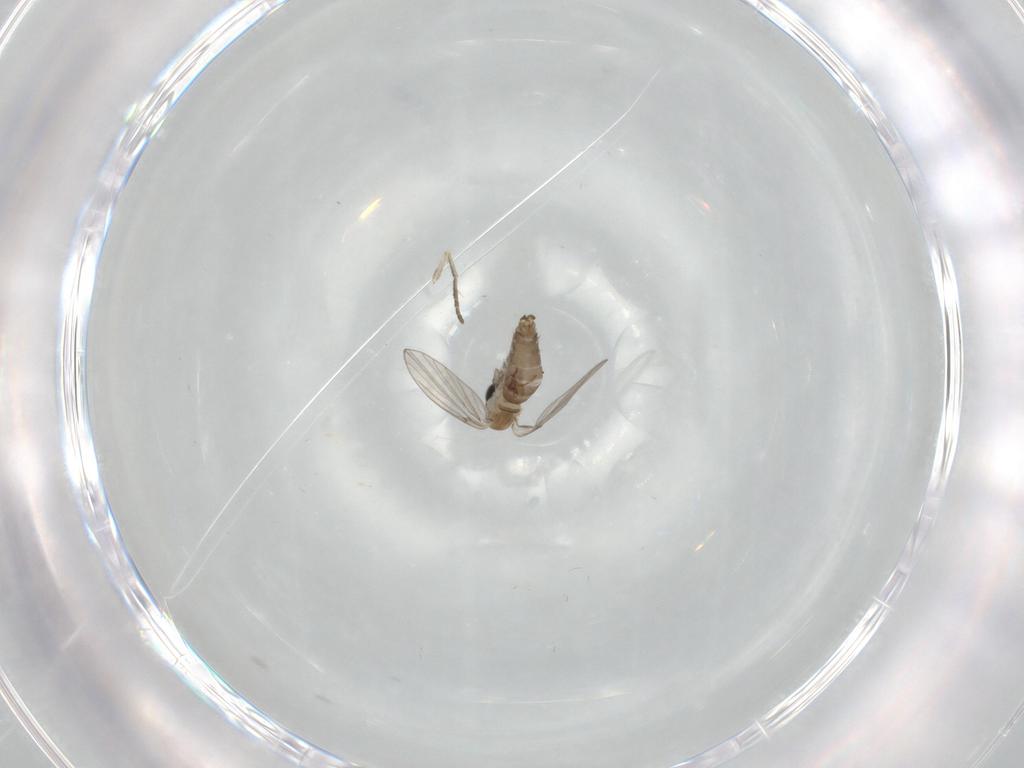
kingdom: Animalia
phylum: Arthropoda
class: Insecta
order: Diptera
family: Psychodidae
